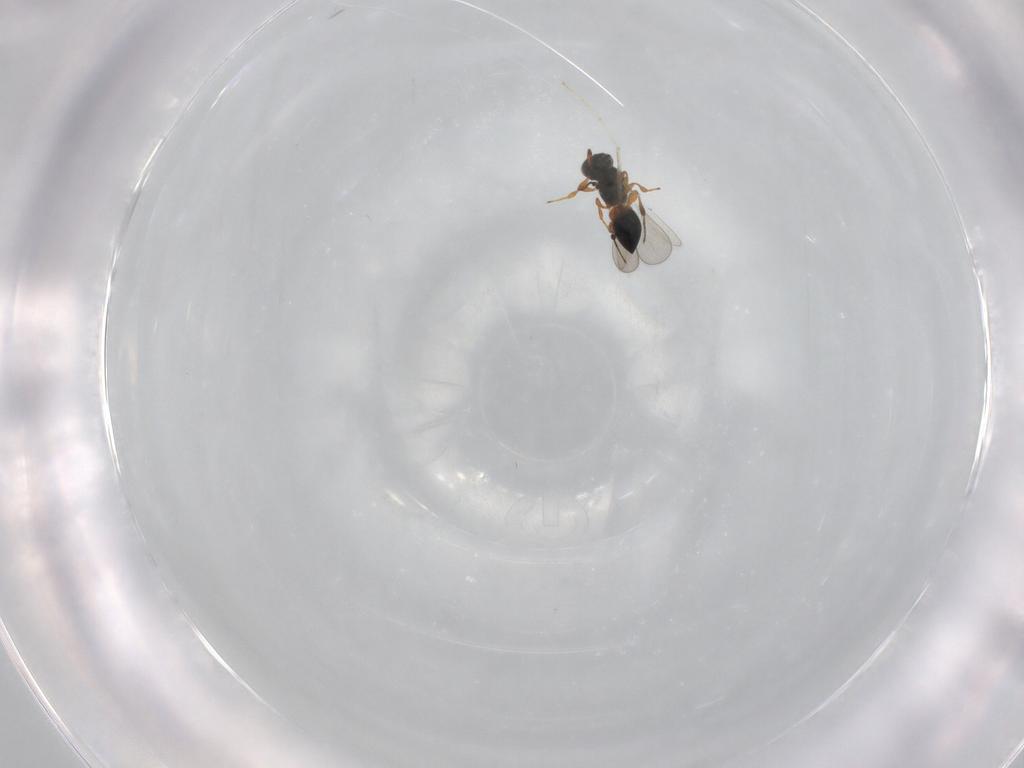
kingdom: Animalia
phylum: Arthropoda
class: Insecta
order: Hymenoptera
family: Platygastridae
